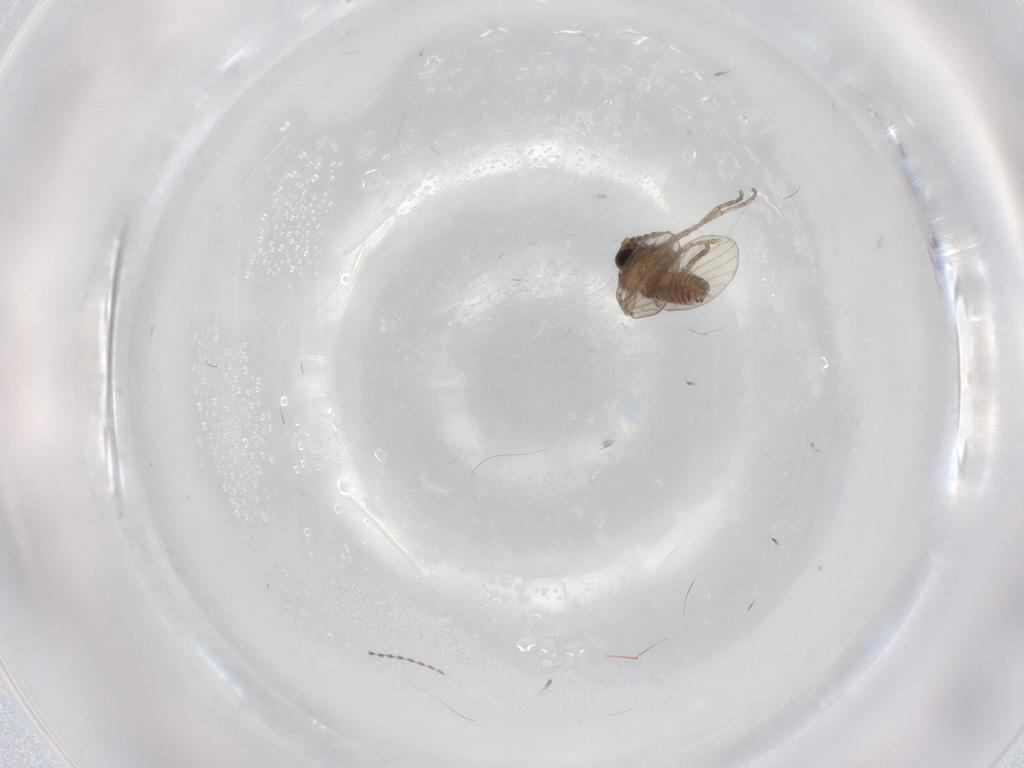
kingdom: Animalia
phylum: Arthropoda
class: Insecta
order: Diptera
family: Psychodidae
